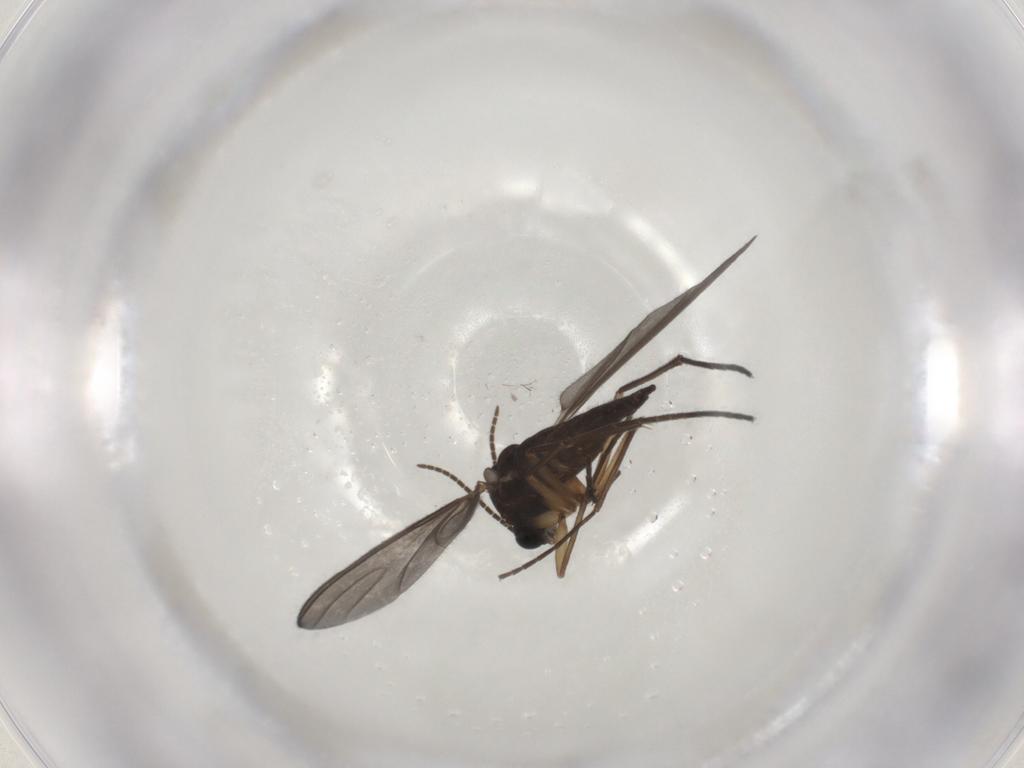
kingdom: Animalia
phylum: Arthropoda
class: Insecta
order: Diptera
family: Sciaridae
